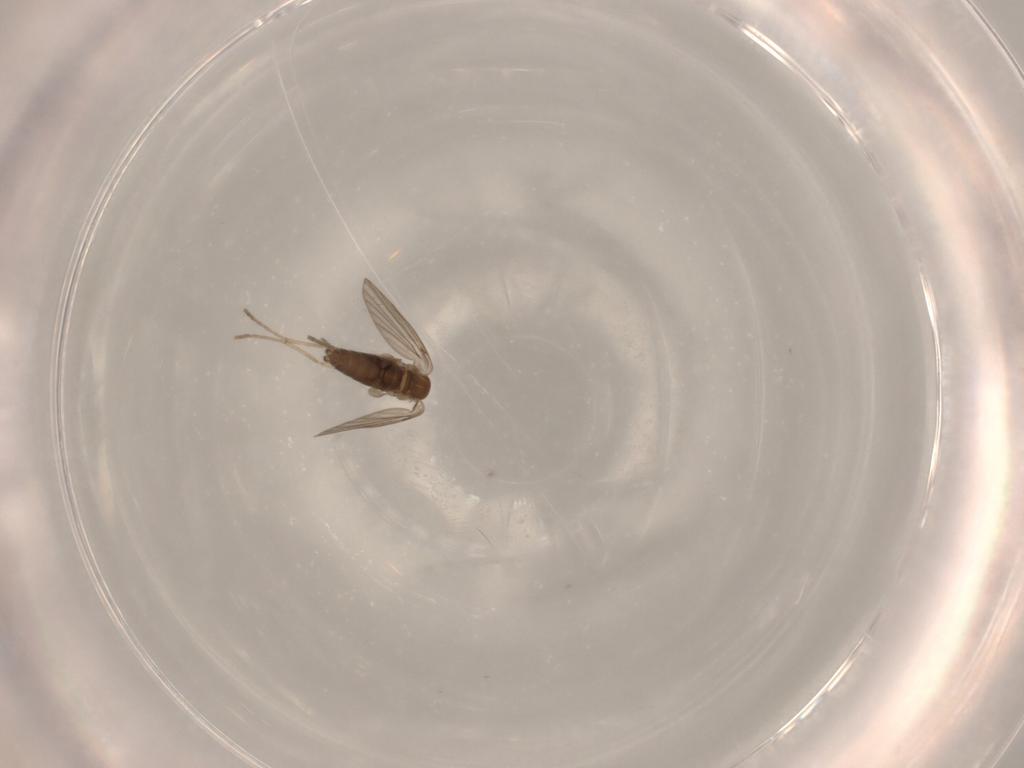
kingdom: Animalia
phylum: Arthropoda
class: Insecta
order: Diptera
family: Psychodidae
